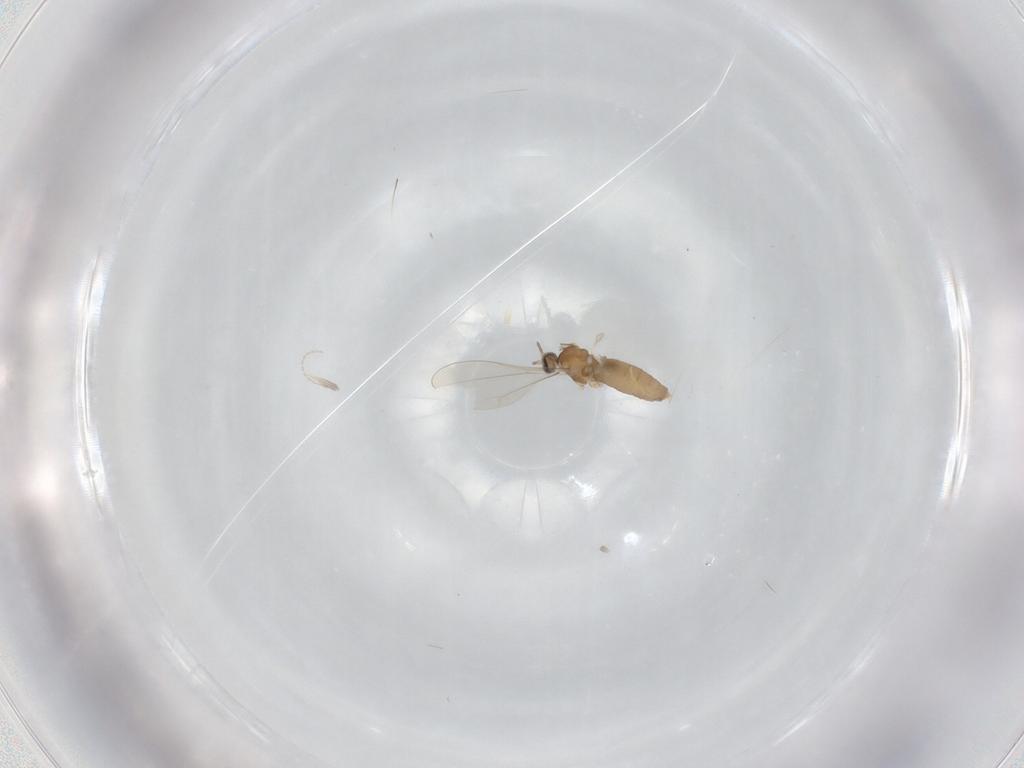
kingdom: Animalia
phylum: Arthropoda
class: Insecta
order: Diptera
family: Cecidomyiidae
